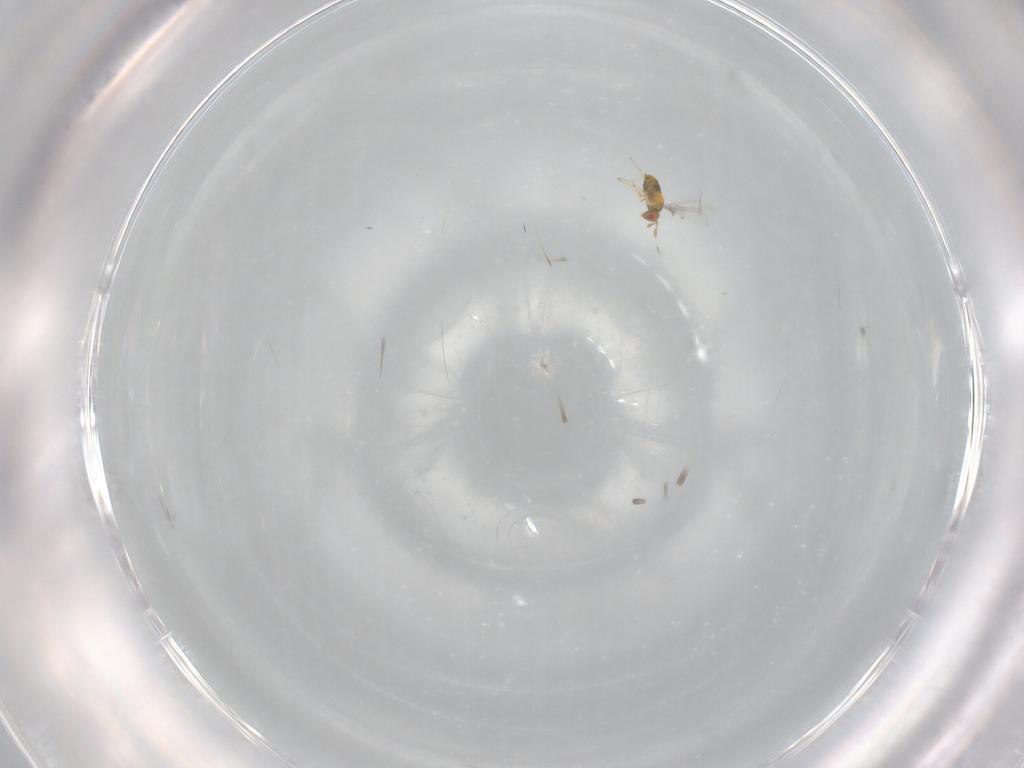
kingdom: Animalia
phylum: Arthropoda
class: Insecta
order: Hymenoptera
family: Trichogrammatidae
